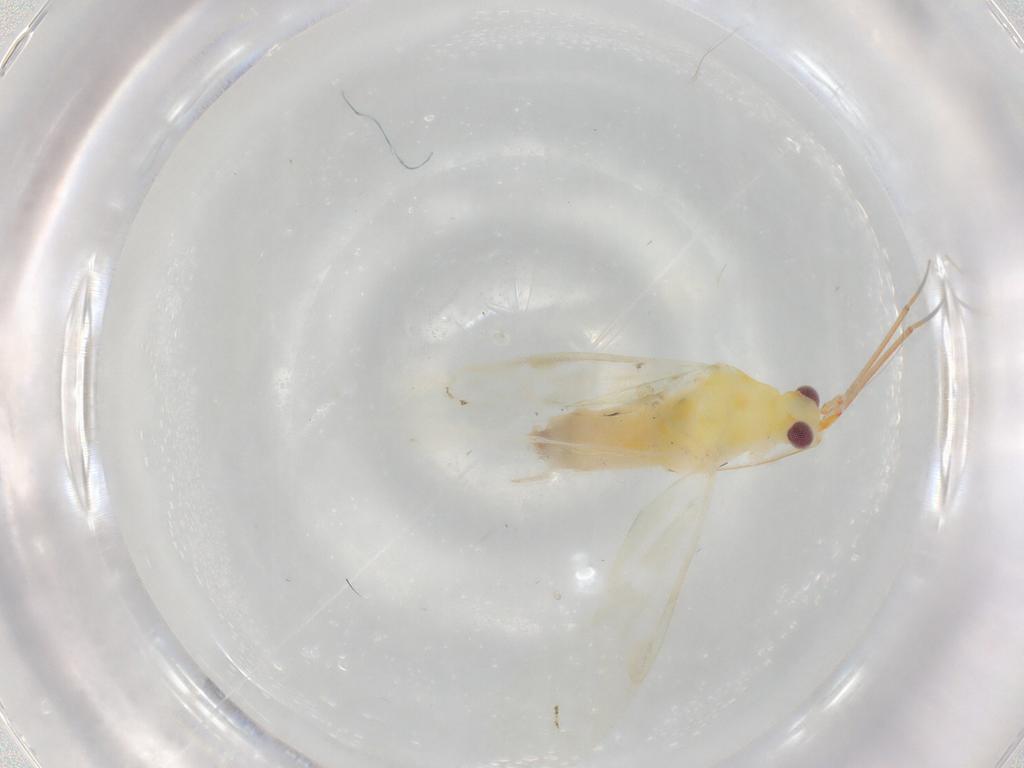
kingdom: Animalia
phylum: Arthropoda
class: Insecta
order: Hemiptera
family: Miridae
